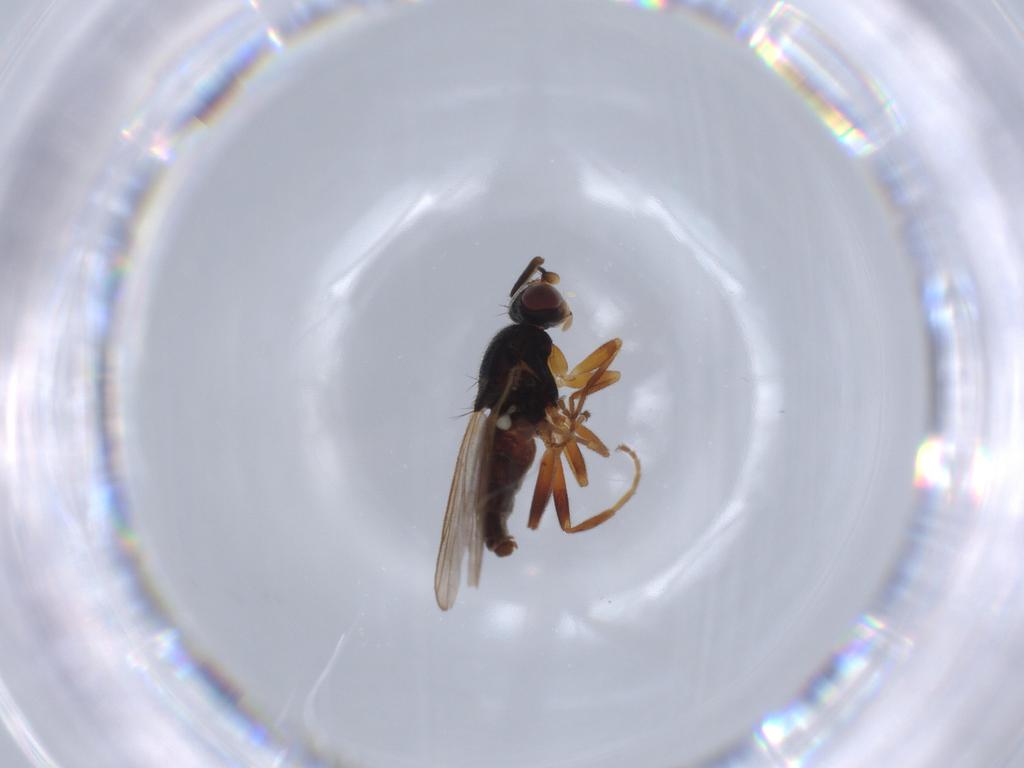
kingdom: Animalia
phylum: Arthropoda
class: Insecta
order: Diptera
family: Chloropidae
